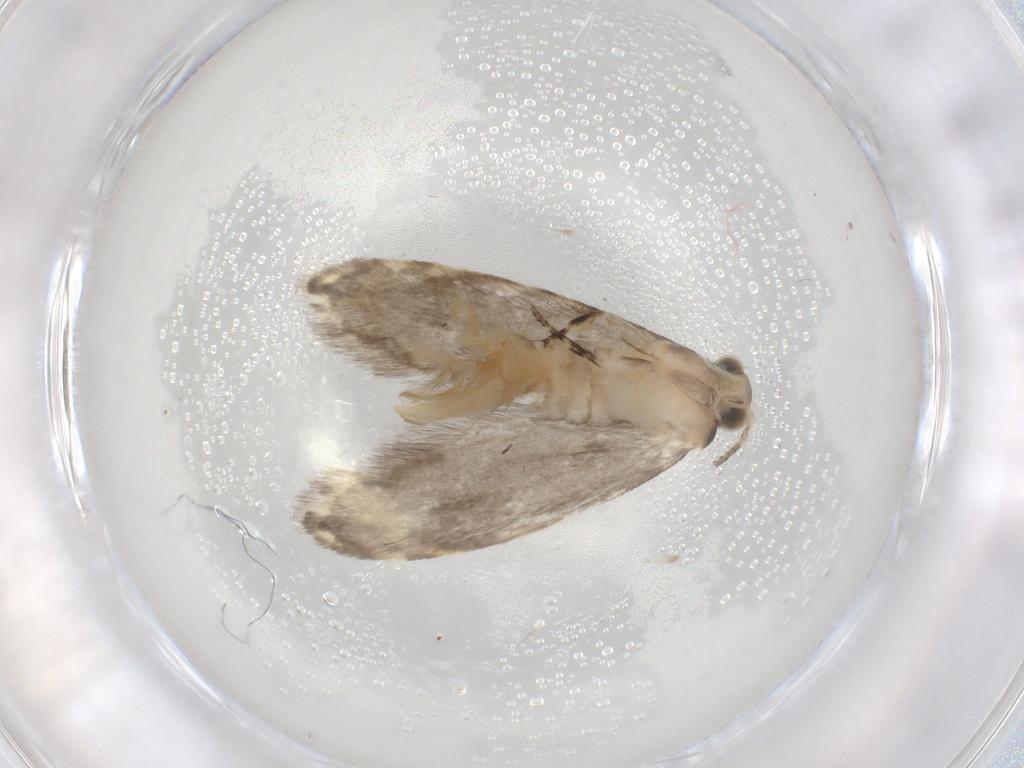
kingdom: Animalia
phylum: Arthropoda
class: Insecta
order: Lepidoptera
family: Tineidae
